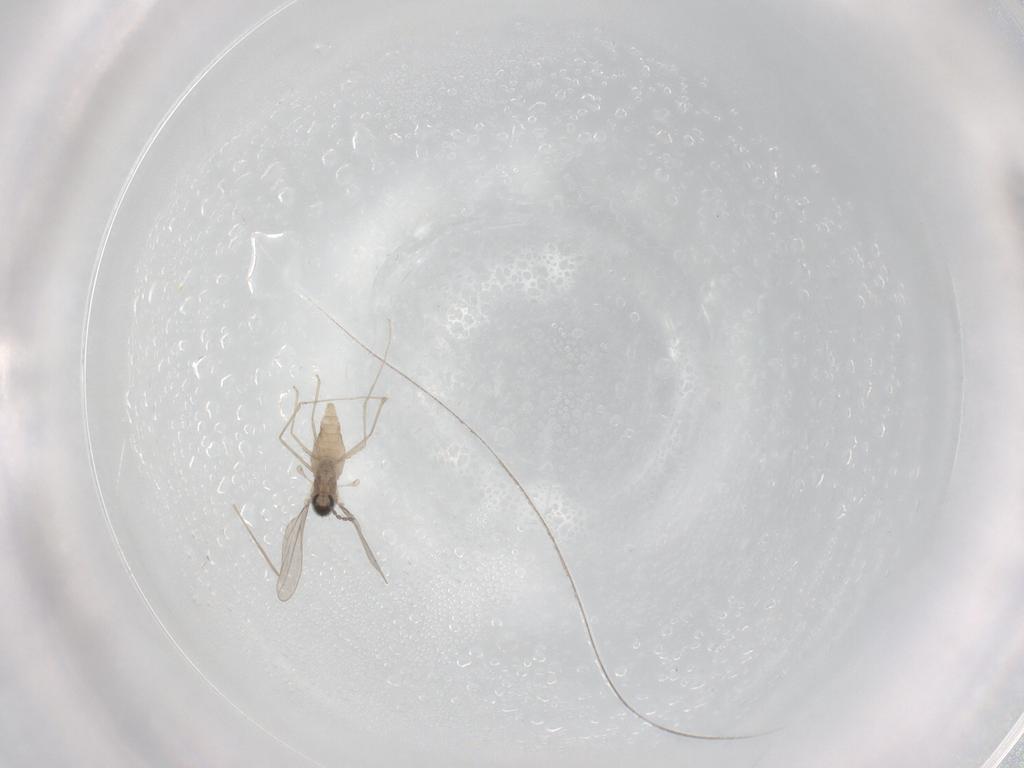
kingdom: Animalia
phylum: Arthropoda
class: Insecta
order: Diptera
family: Cecidomyiidae
